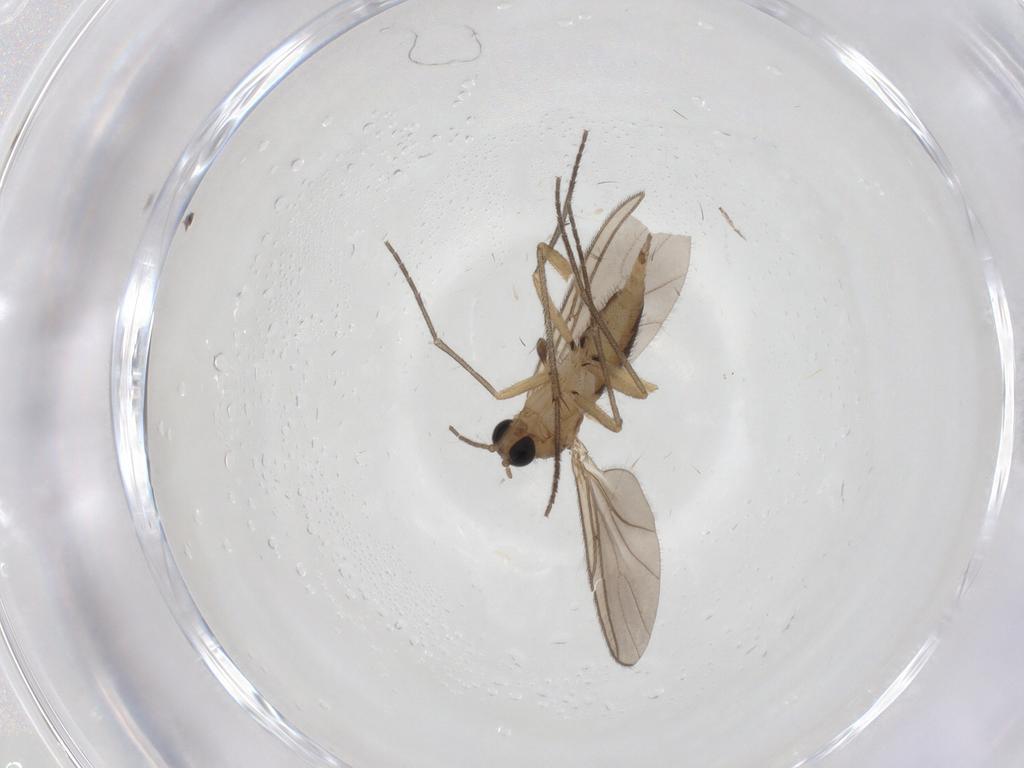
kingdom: Animalia
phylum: Arthropoda
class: Insecta
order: Diptera
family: Sciaridae
